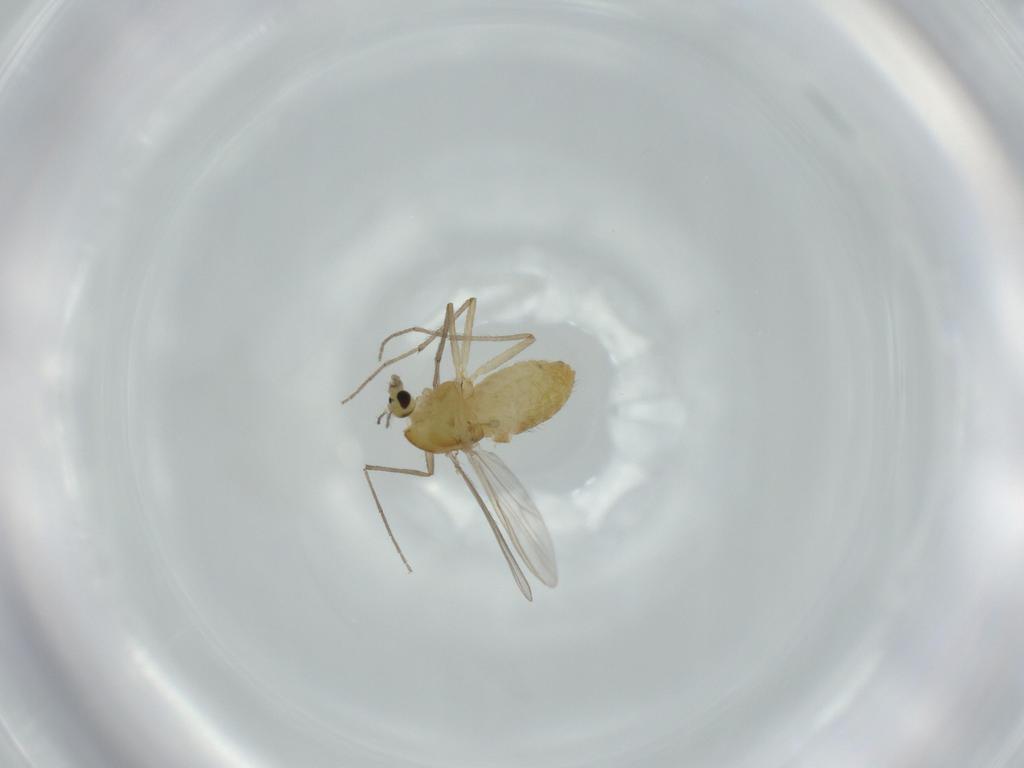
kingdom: Animalia
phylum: Arthropoda
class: Insecta
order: Diptera
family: Chironomidae
